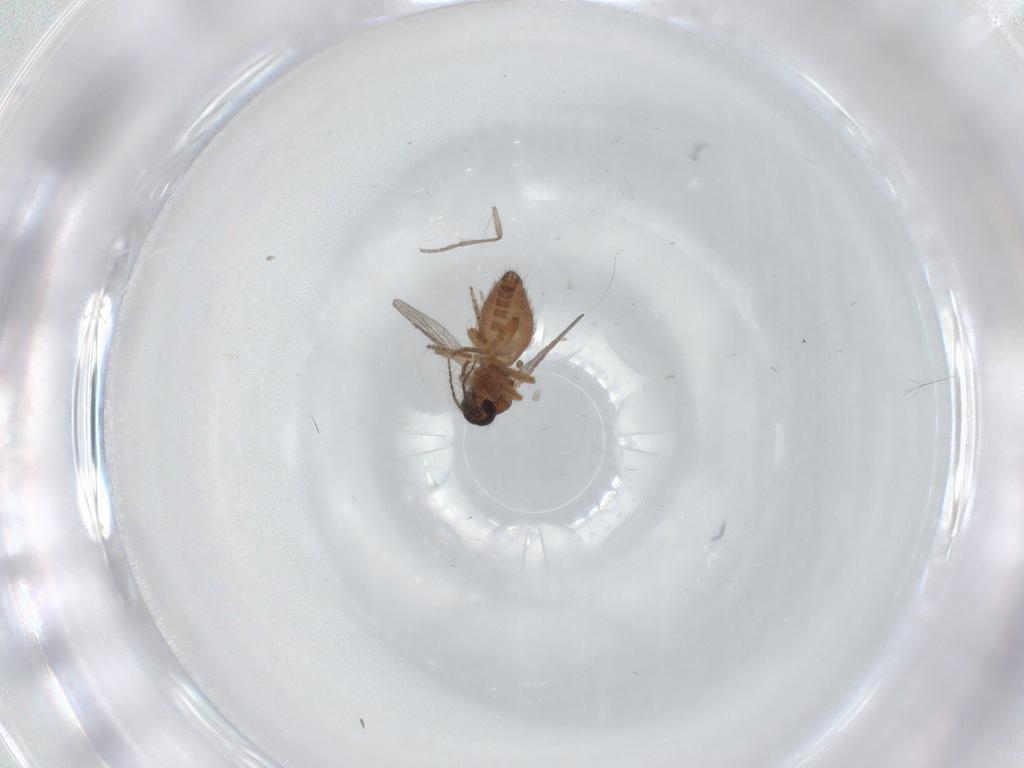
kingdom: Animalia
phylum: Arthropoda
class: Insecta
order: Diptera
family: Ceratopogonidae
